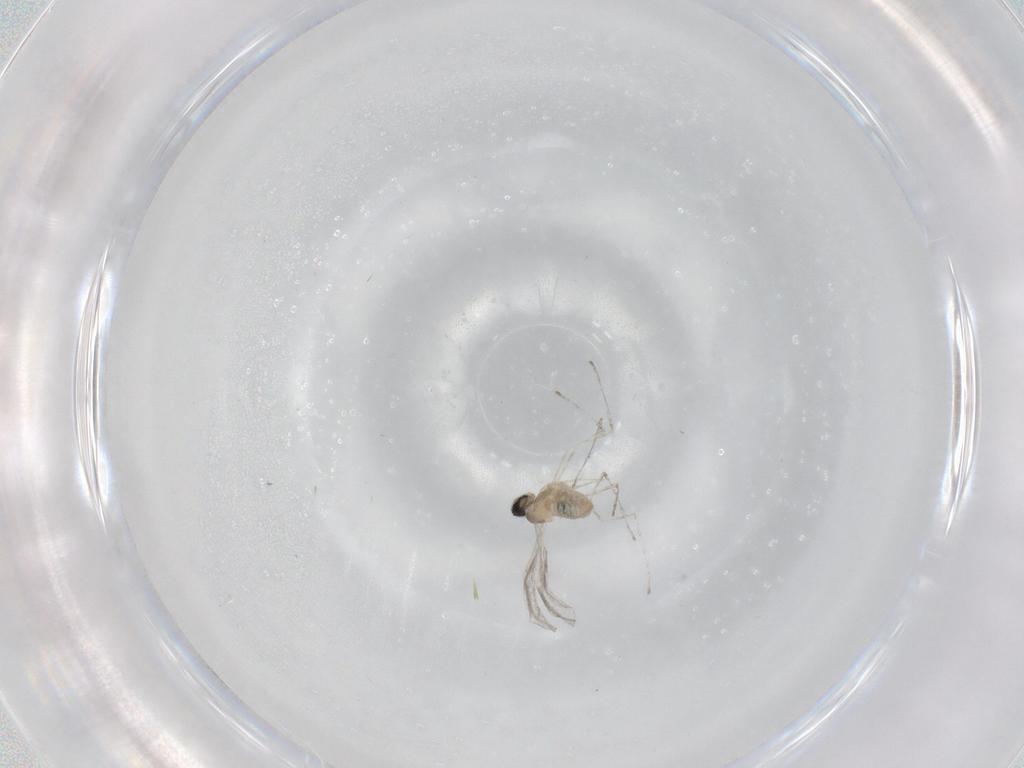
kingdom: Animalia
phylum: Arthropoda
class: Insecta
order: Diptera
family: Cecidomyiidae
